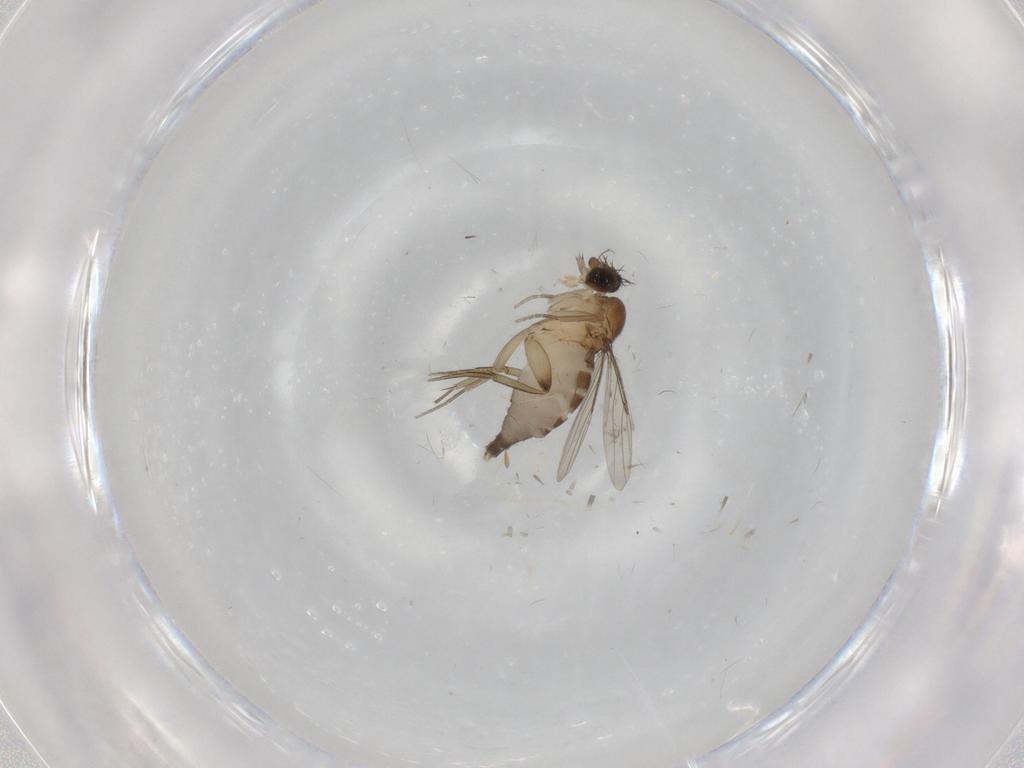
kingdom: Animalia
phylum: Arthropoda
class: Insecta
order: Diptera
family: Phoridae
